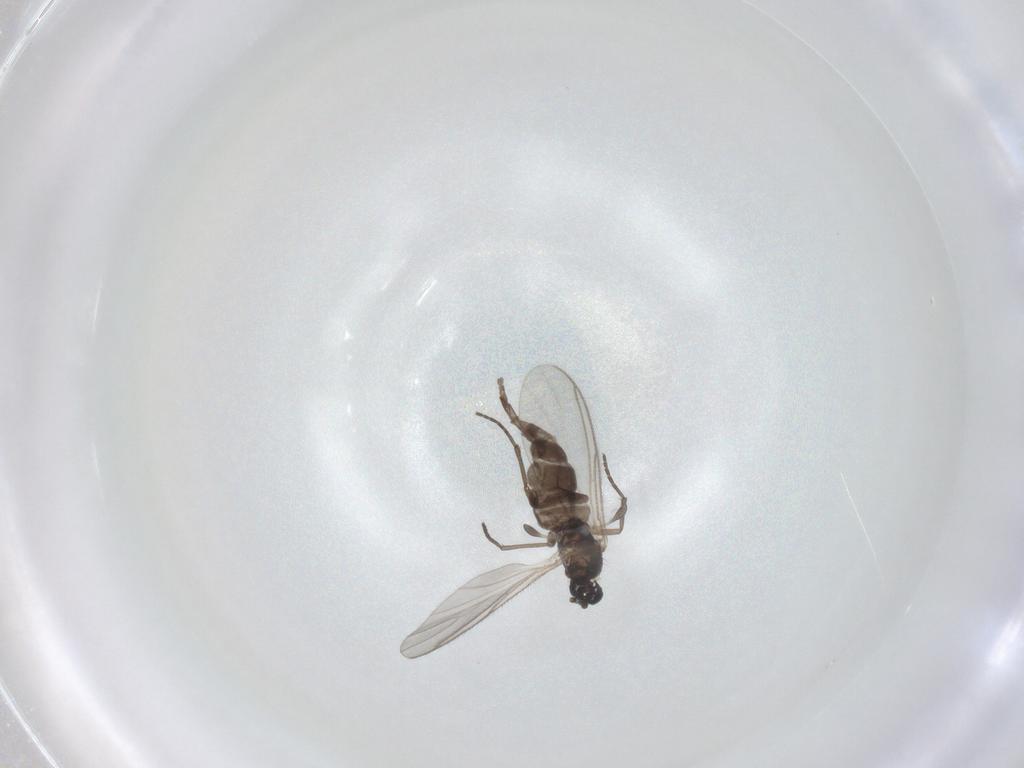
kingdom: Animalia
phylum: Arthropoda
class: Insecta
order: Diptera
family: Sciaridae
